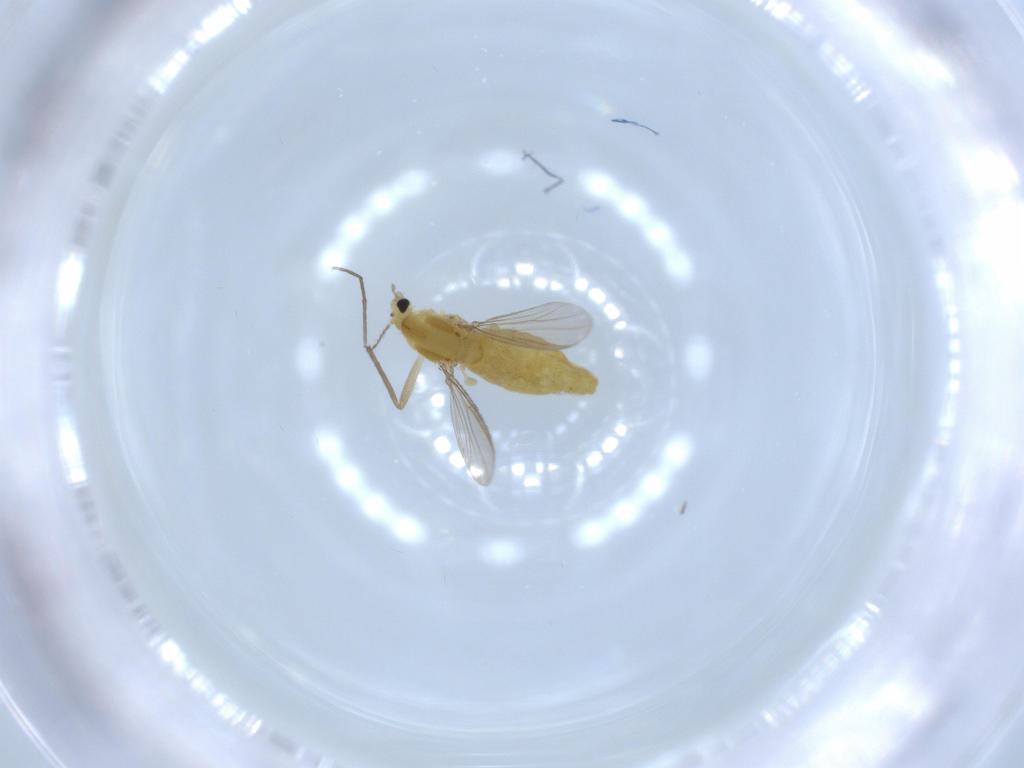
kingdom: Animalia
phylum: Arthropoda
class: Insecta
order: Diptera
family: Chironomidae
